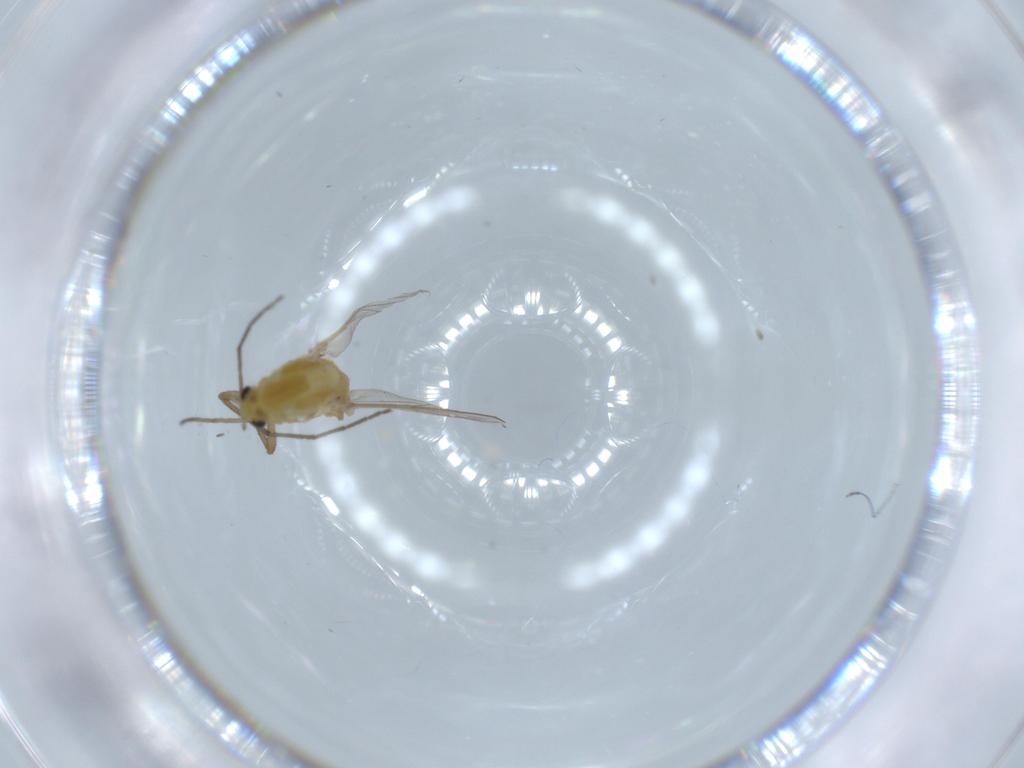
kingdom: Animalia
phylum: Arthropoda
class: Insecta
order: Diptera
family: Chironomidae
